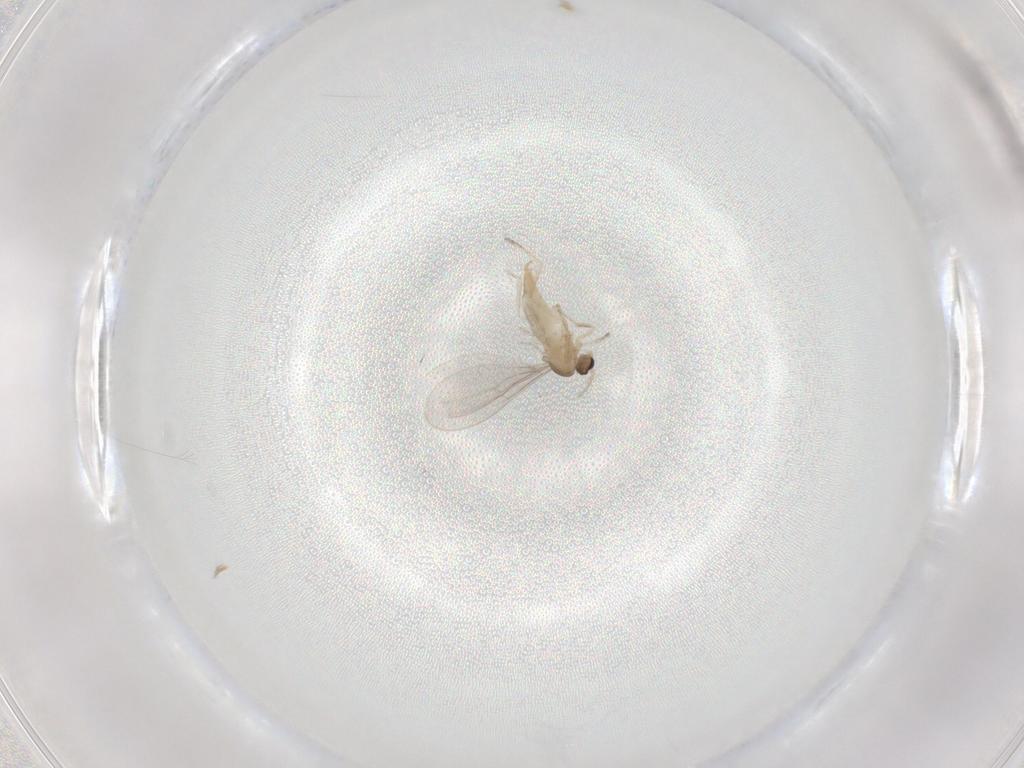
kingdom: Animalia
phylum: Arthropoda
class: Insecta
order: Diptera
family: Cecidomyiidae
